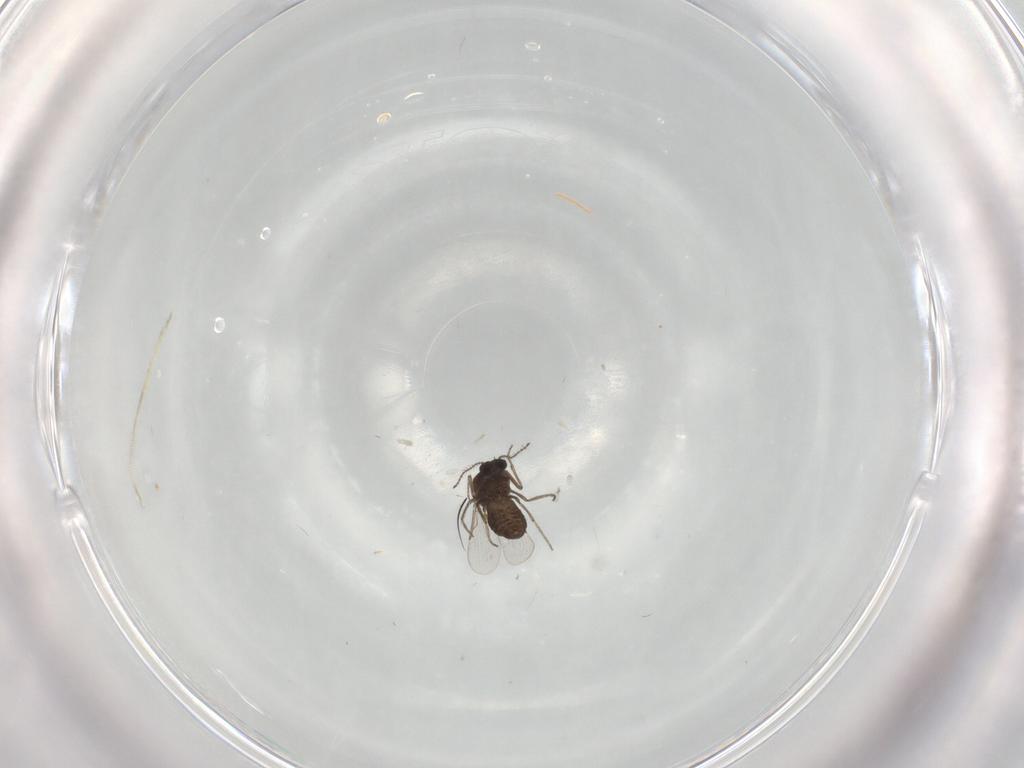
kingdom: Animalia
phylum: Arthropoda
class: Insecta
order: Diptera
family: Ceratopogonidae
